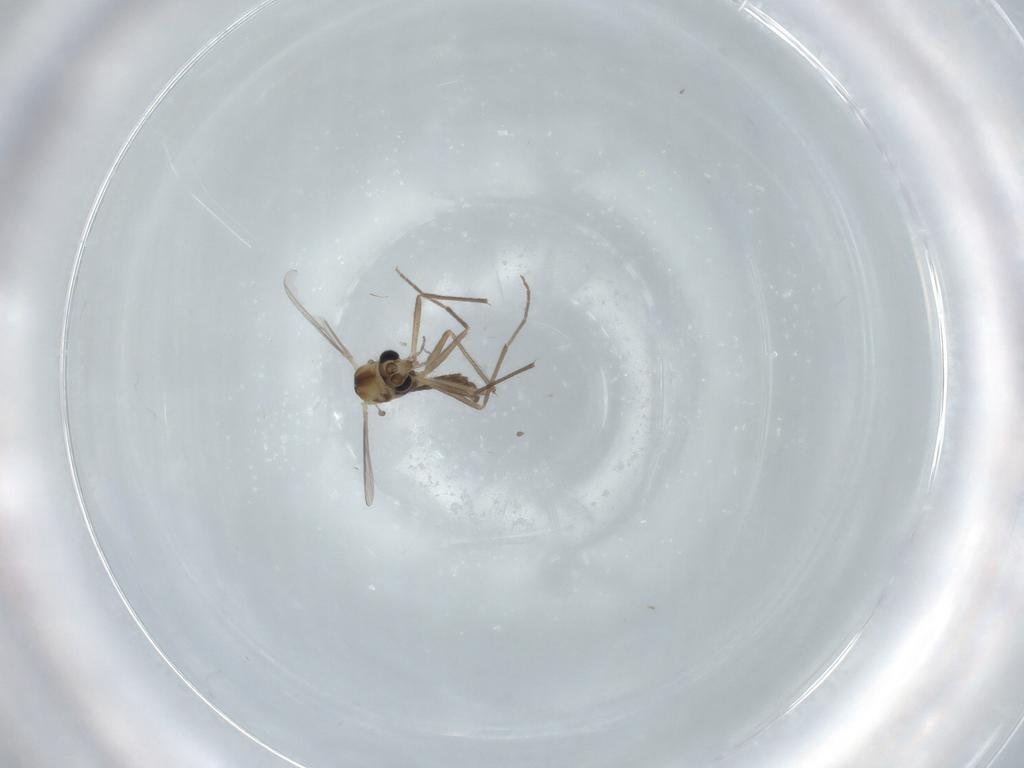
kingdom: Animalia
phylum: Arthropoda
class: Insecta
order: Diptera
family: Chironomidae
